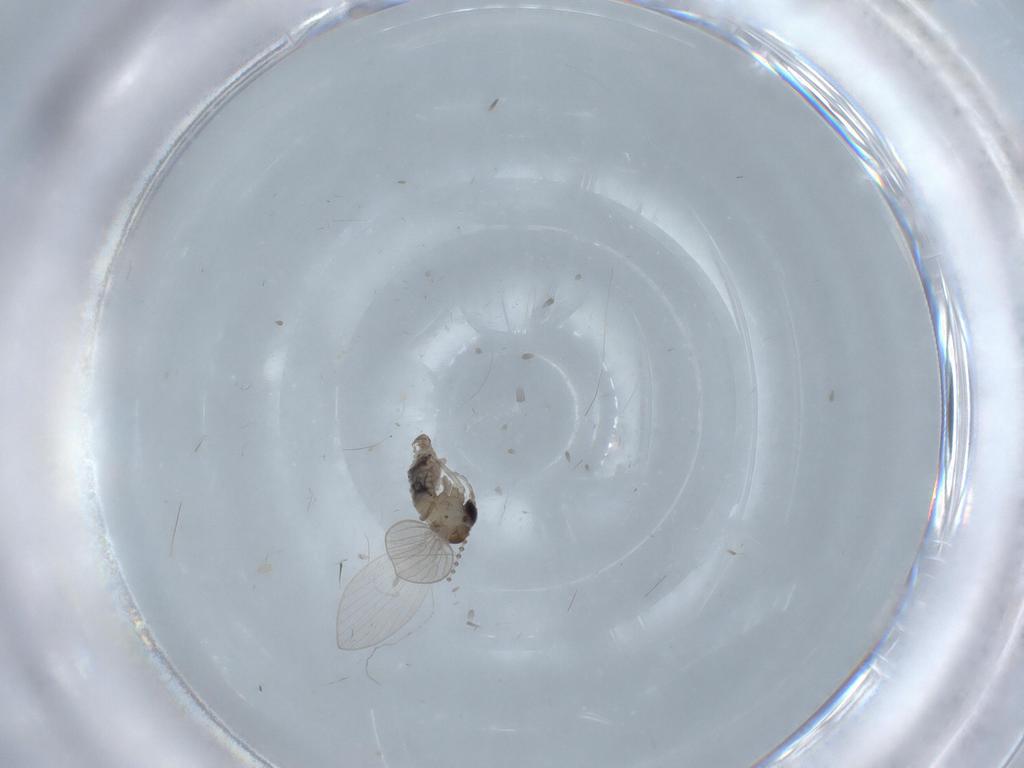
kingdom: Animalia
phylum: Arthropoda
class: Insecta
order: Diptera
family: Psychodidae
